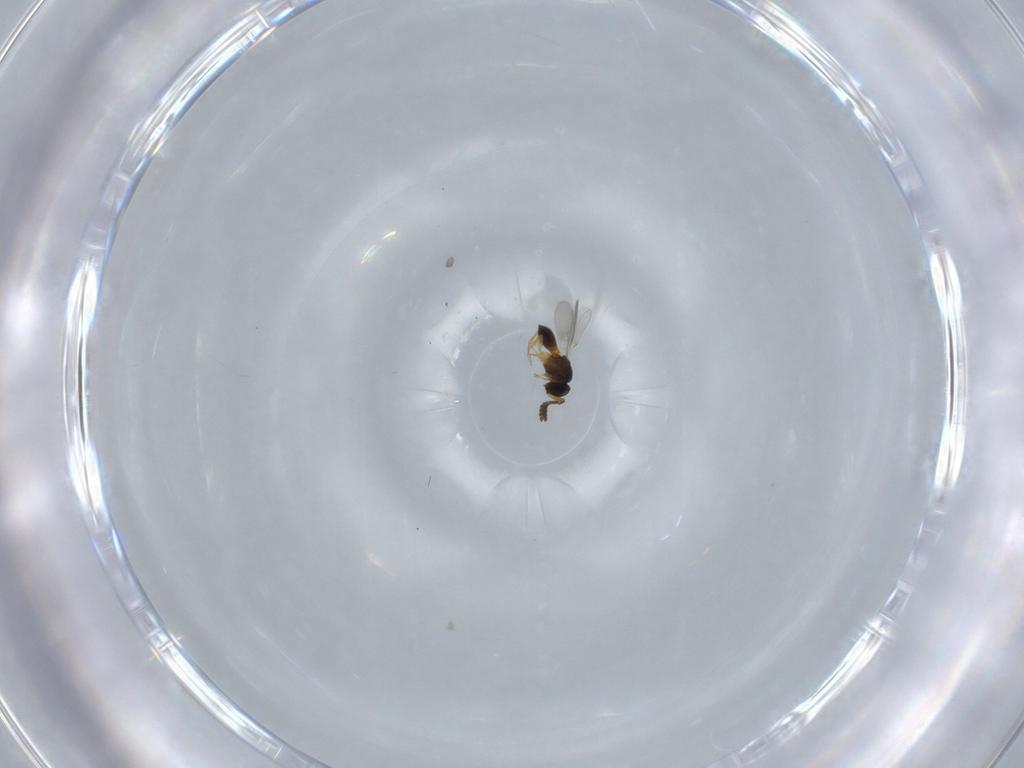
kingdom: Animalia
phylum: Arthropoda
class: Insecta
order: Hymenoptera
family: Scelionidae
